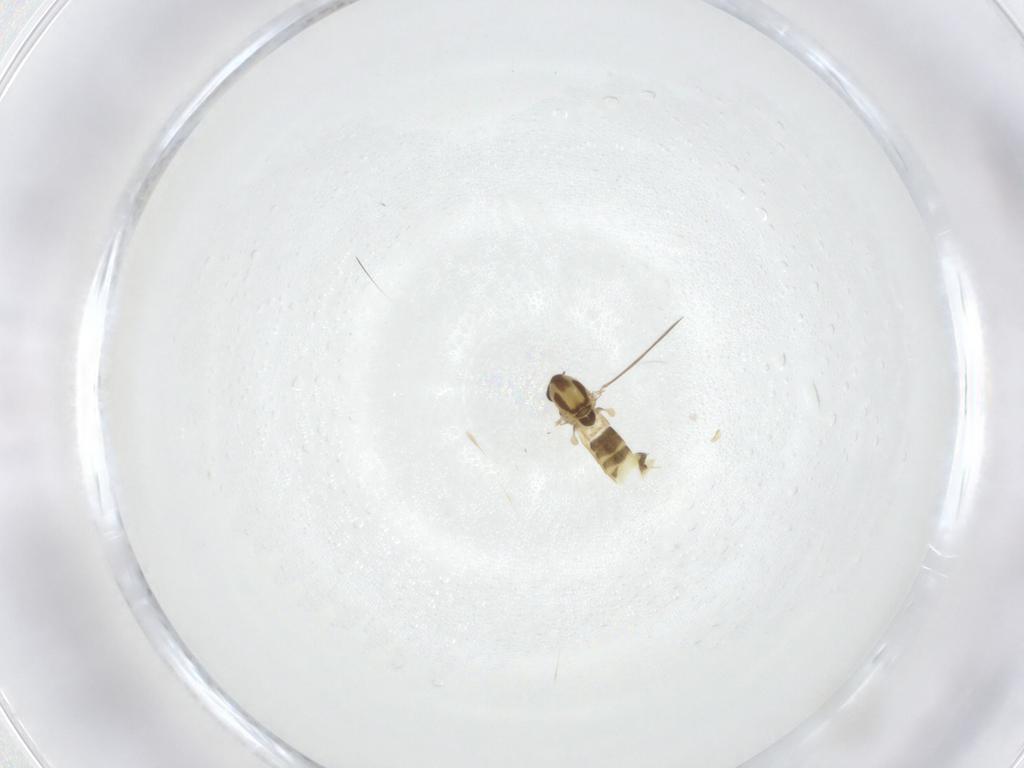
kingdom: Animalia
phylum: Arthropoda
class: Insecta
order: Diptera
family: Chironomidae
